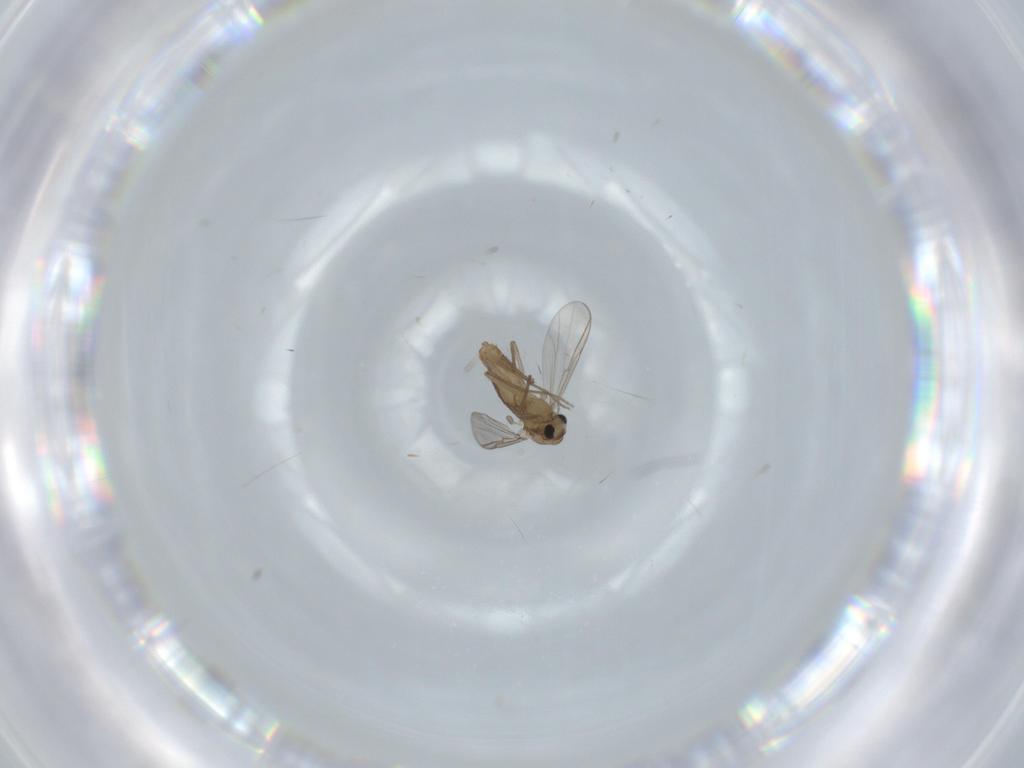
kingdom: Animalia
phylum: Arthropoda
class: Insecta
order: Diptera
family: Chironomidae
